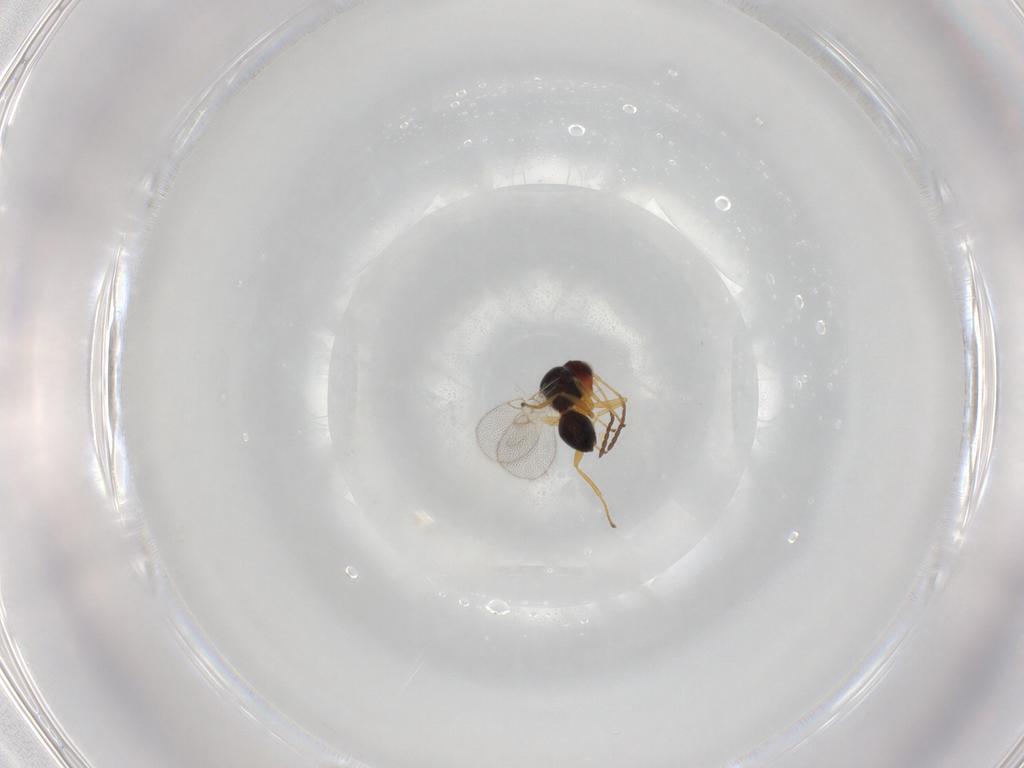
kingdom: Animalia
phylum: Arthropoda
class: Insecta
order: Hymenoptera
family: Figitidae
